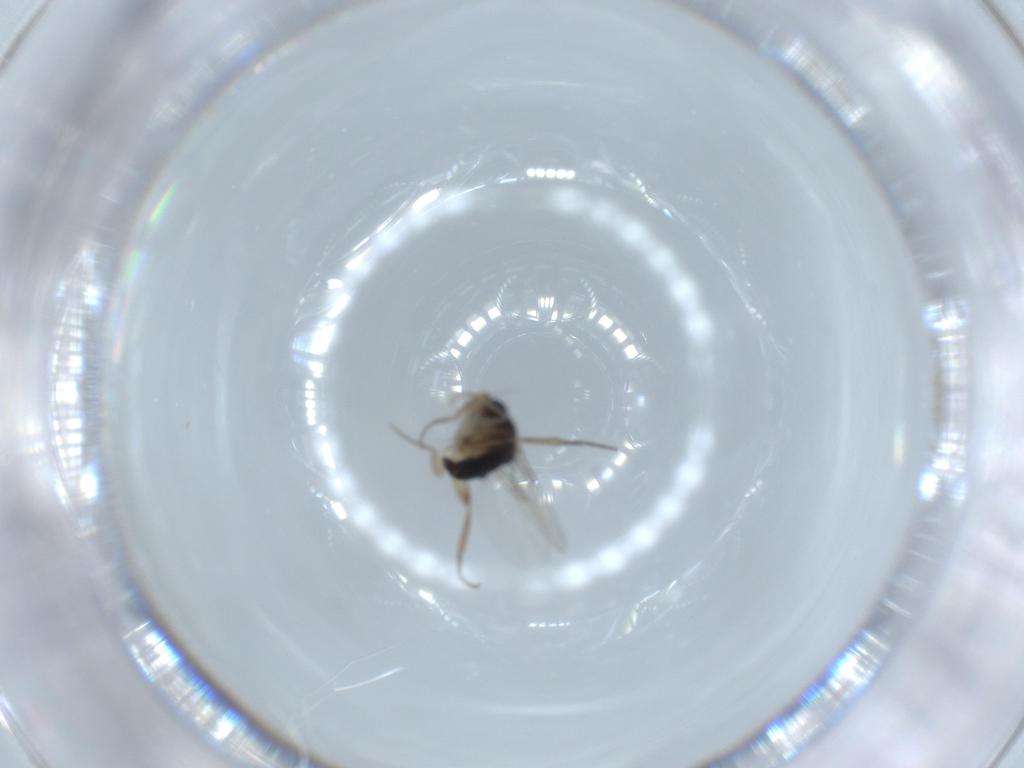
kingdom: Animalia
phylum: Arthropoda
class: Insecta
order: Diptera
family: Phoridae
